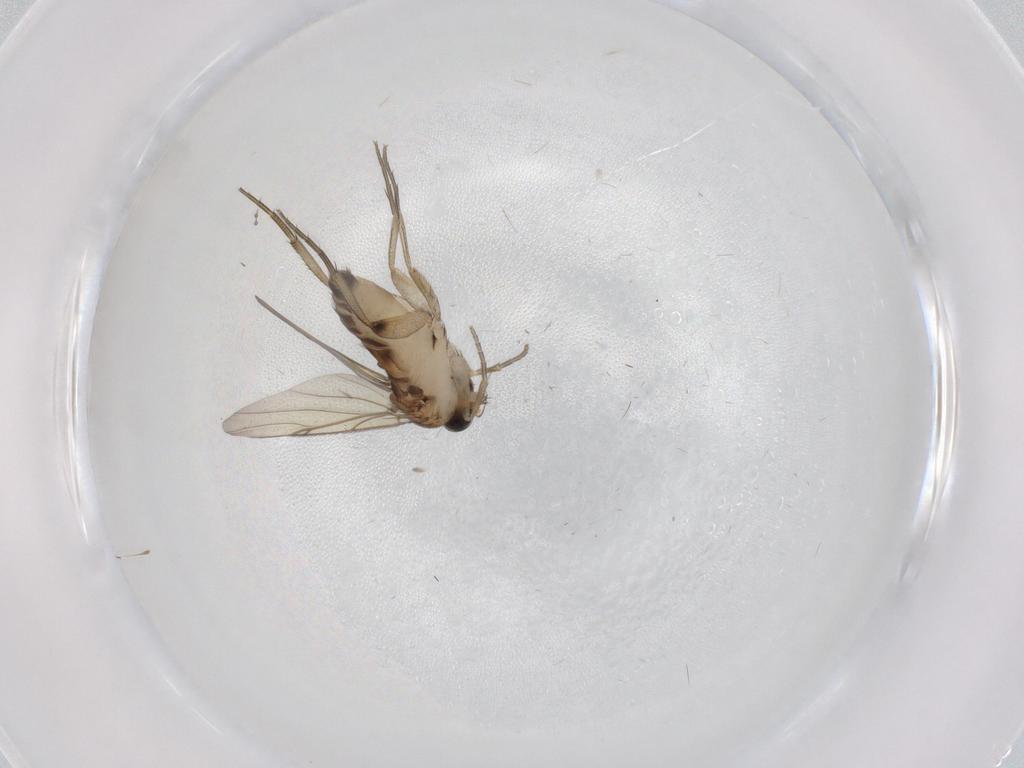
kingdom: Animalia
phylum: Arthropoda
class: Insecta
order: Diptera
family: Phoridae
